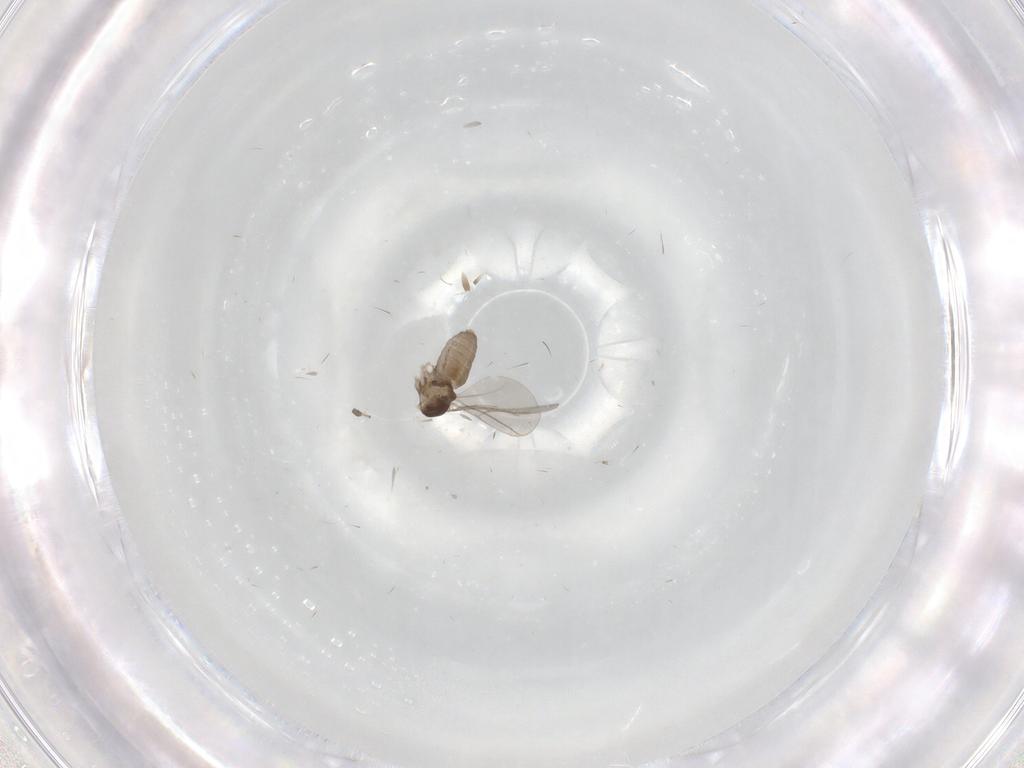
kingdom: Animalia
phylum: Arthropoda
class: Insecta
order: Diptera
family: Cecidomyiidae
